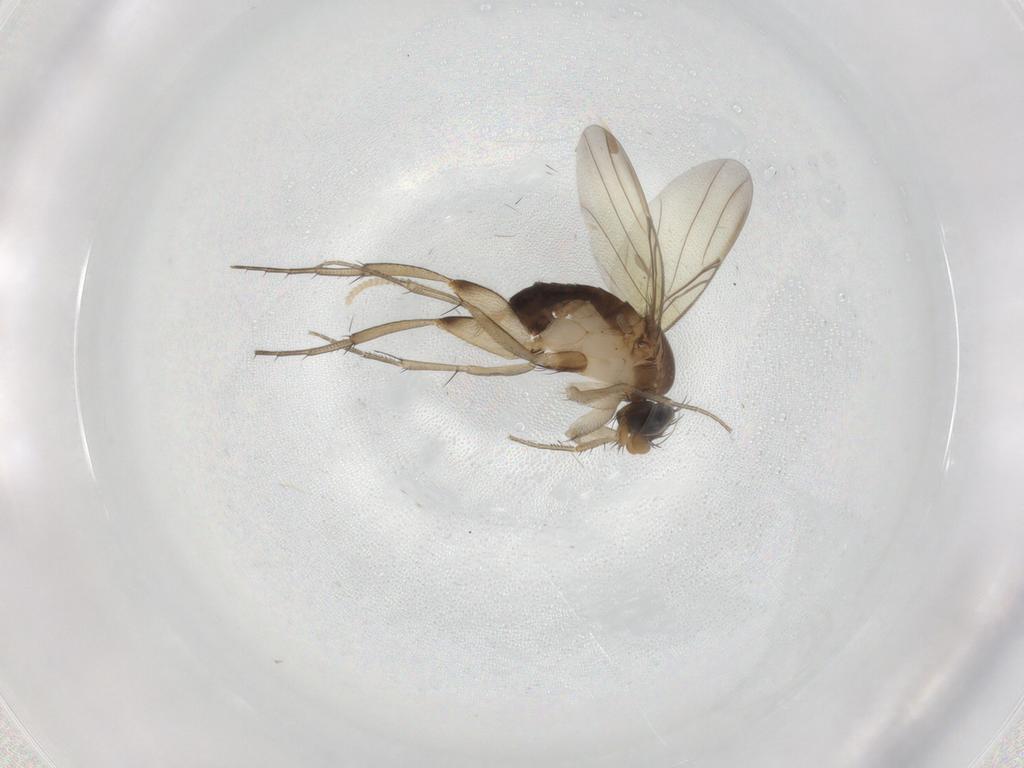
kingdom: Animalia
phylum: Arthropoda
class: Insecta
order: Diptera
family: Phoridae
